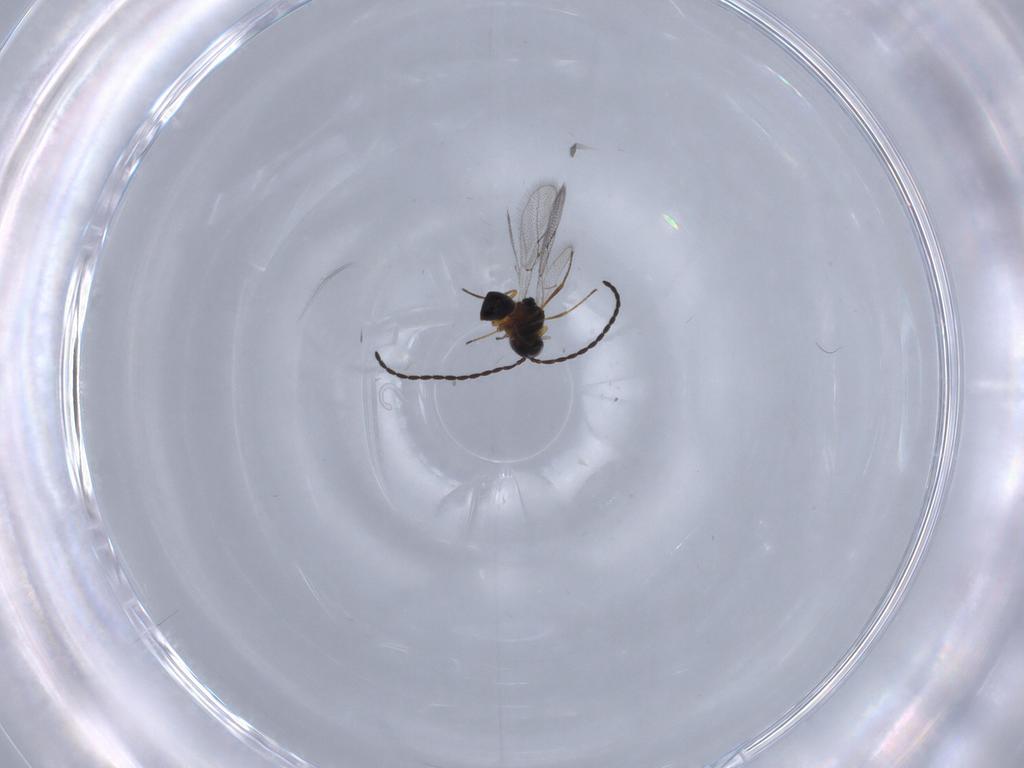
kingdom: Animalia
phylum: Arthropoda
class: Insecta
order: Hymenoptera
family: Figitidae
